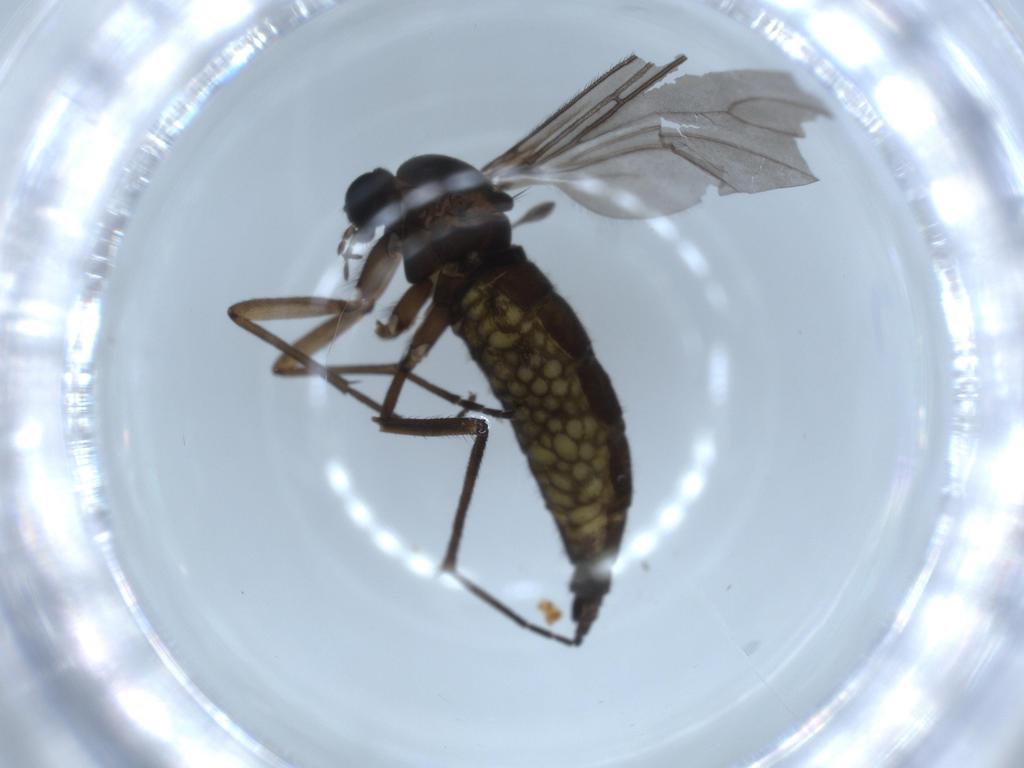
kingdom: Animalia
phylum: Arthropoda
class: Insecta
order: Diptera
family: Sciaridae
